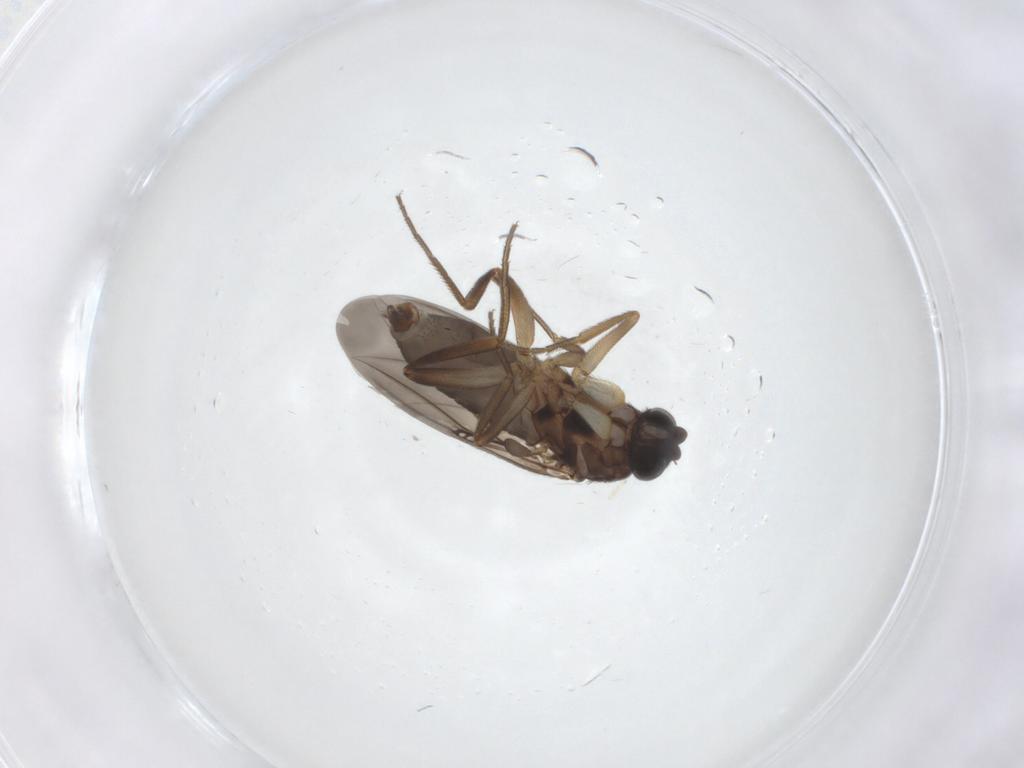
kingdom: Animalia
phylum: Arthropoda
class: Insecta
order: Diptera
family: Phoridae
